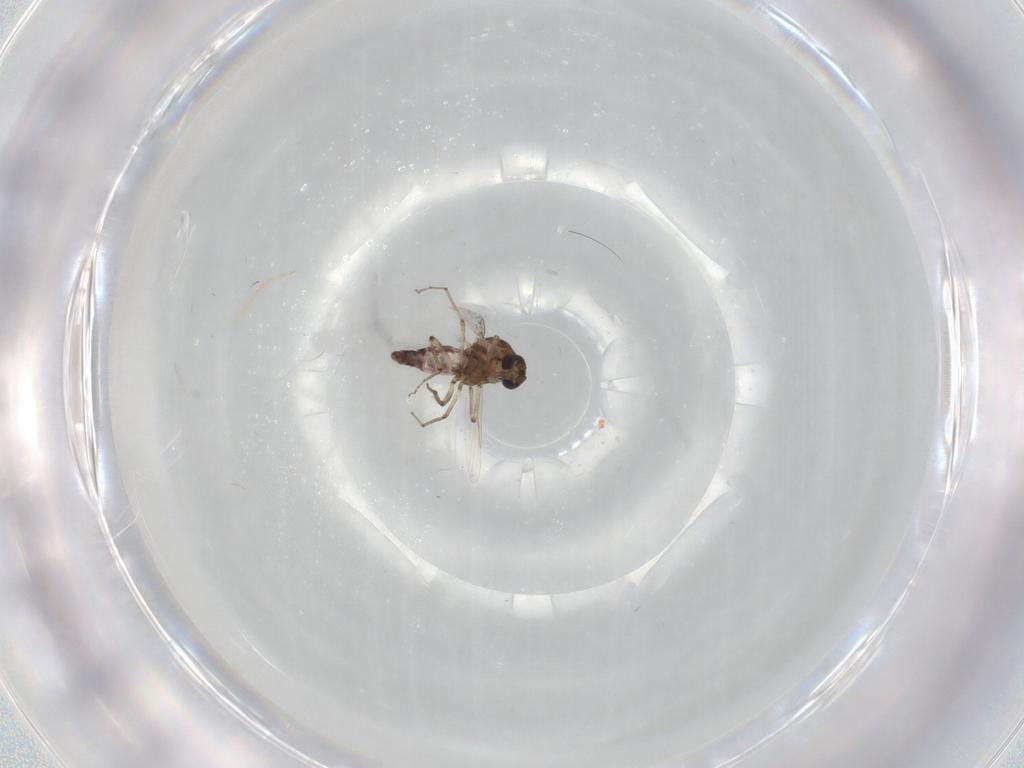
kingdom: Animalia
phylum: Arthropoda
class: Insecta
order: Diptera
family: Ceratopogonidae
